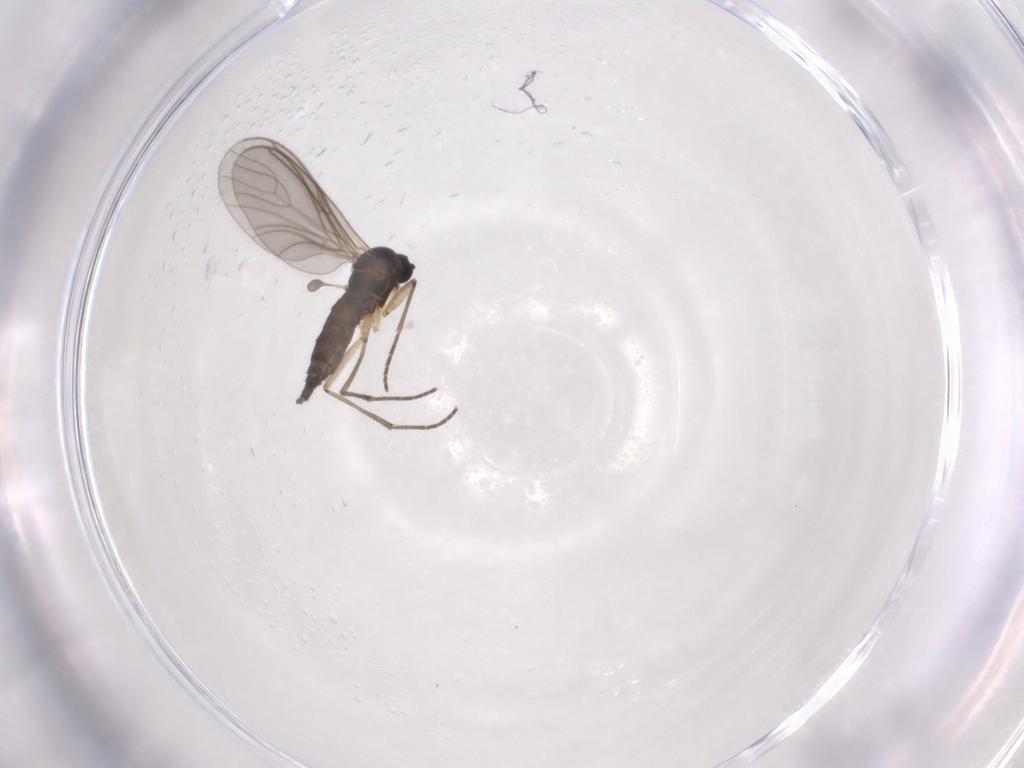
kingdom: Animalia
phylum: Arthropoda
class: Insecta
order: Diptera
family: Sciaridae
